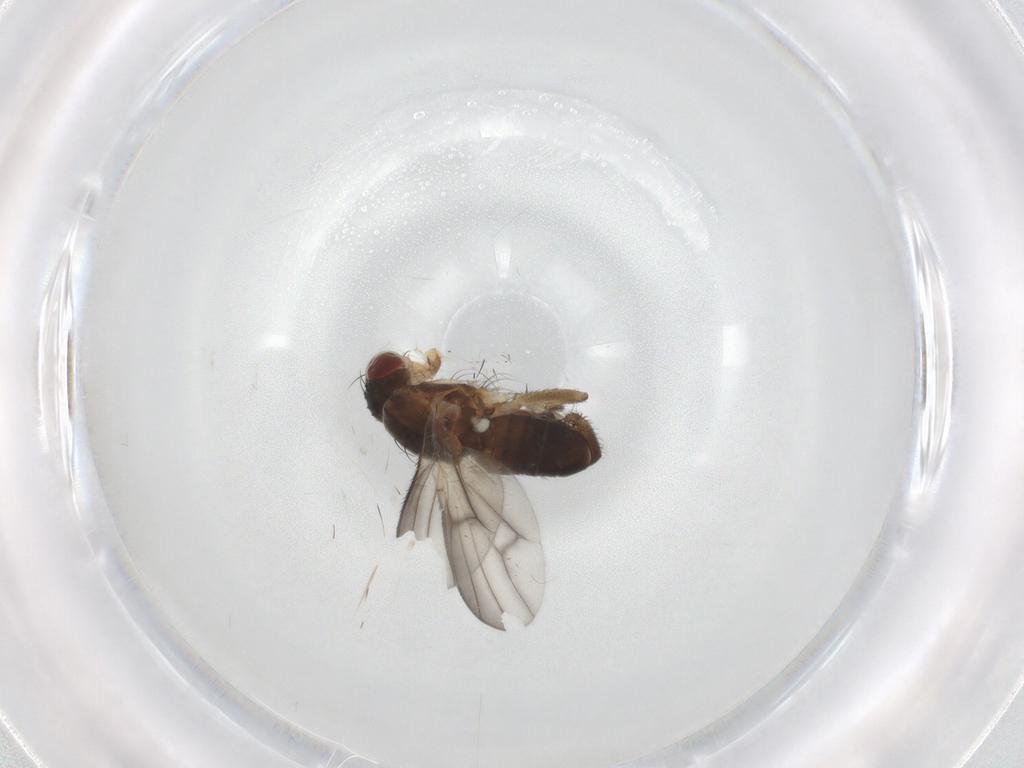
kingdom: Animalia
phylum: Arthropoda
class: Insecta
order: Diptera
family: Heleomyzidae
